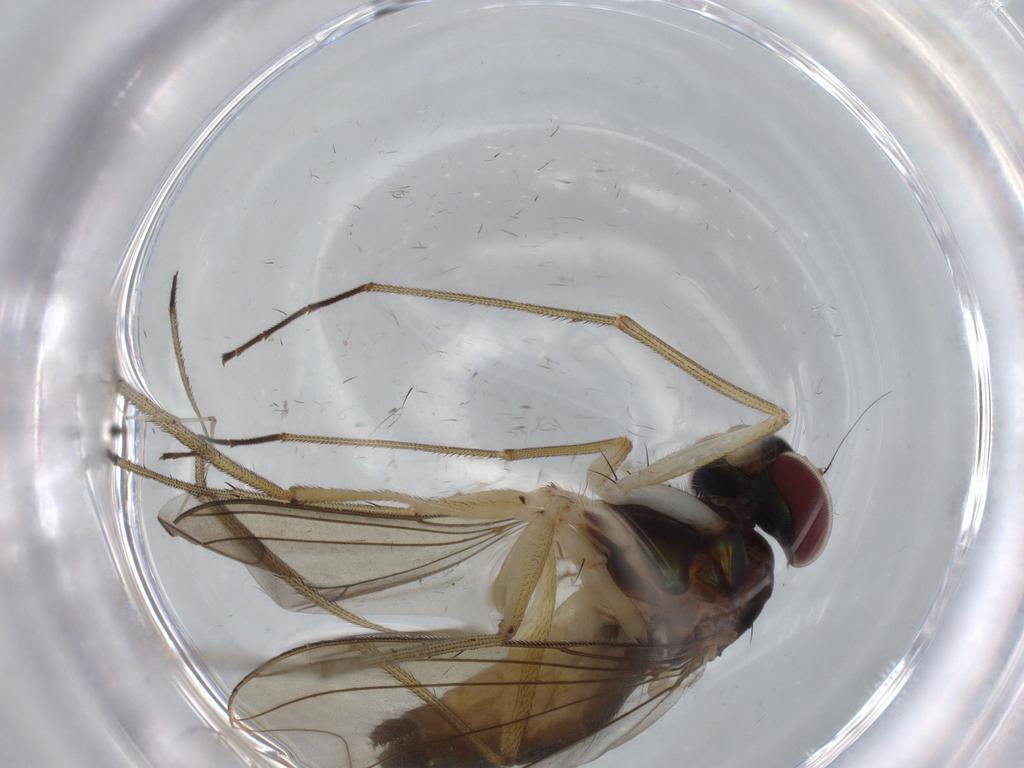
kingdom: Animalia
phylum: Arthropoda
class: Insecta
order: Diptera
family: Dolichopodidae
